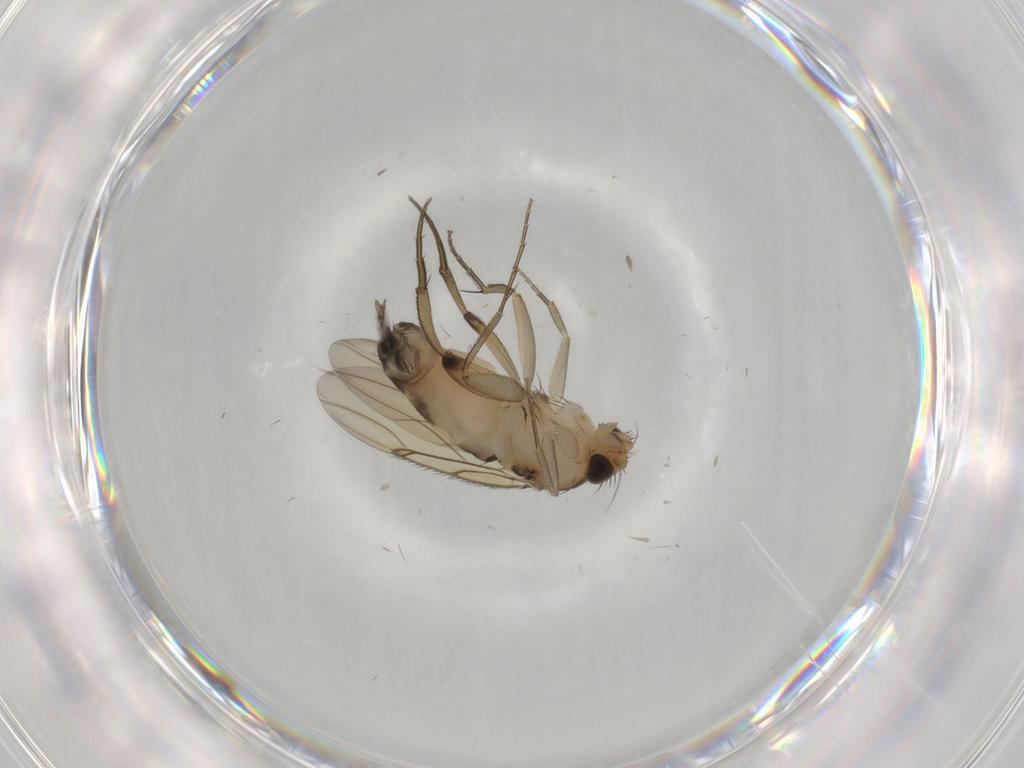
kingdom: Animalia
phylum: Arthropoda
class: Insecta
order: Diptera
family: Phoridae
